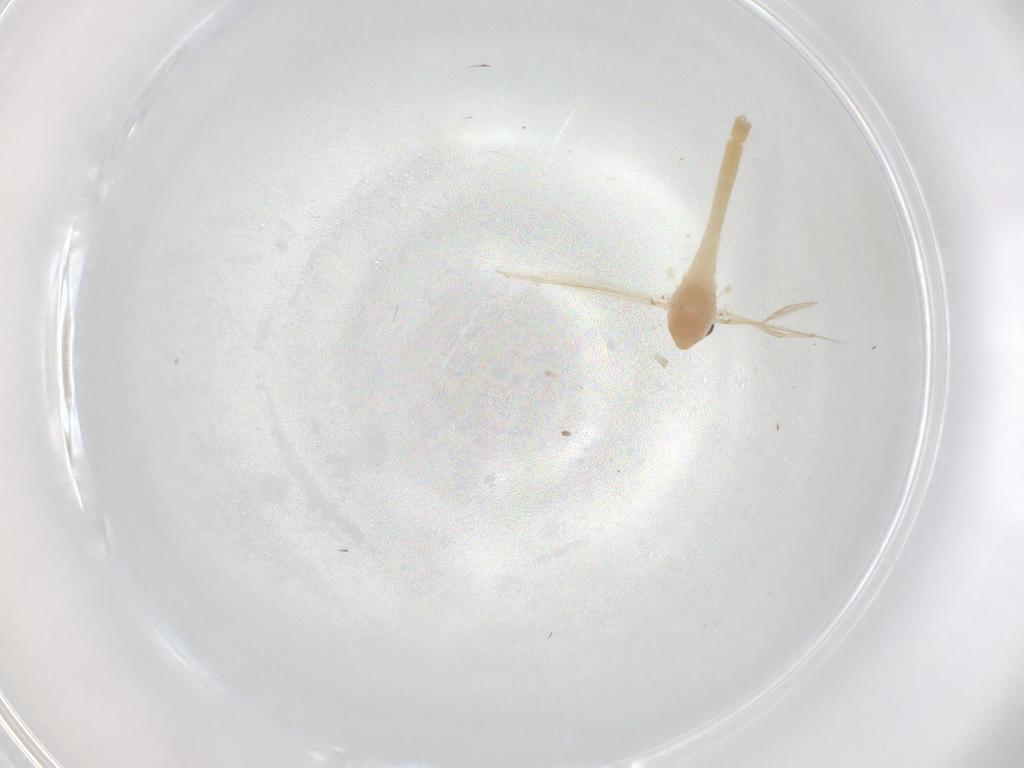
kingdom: Animalia
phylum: Arthropoda
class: Insecta
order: Diptera
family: Chironomidae
